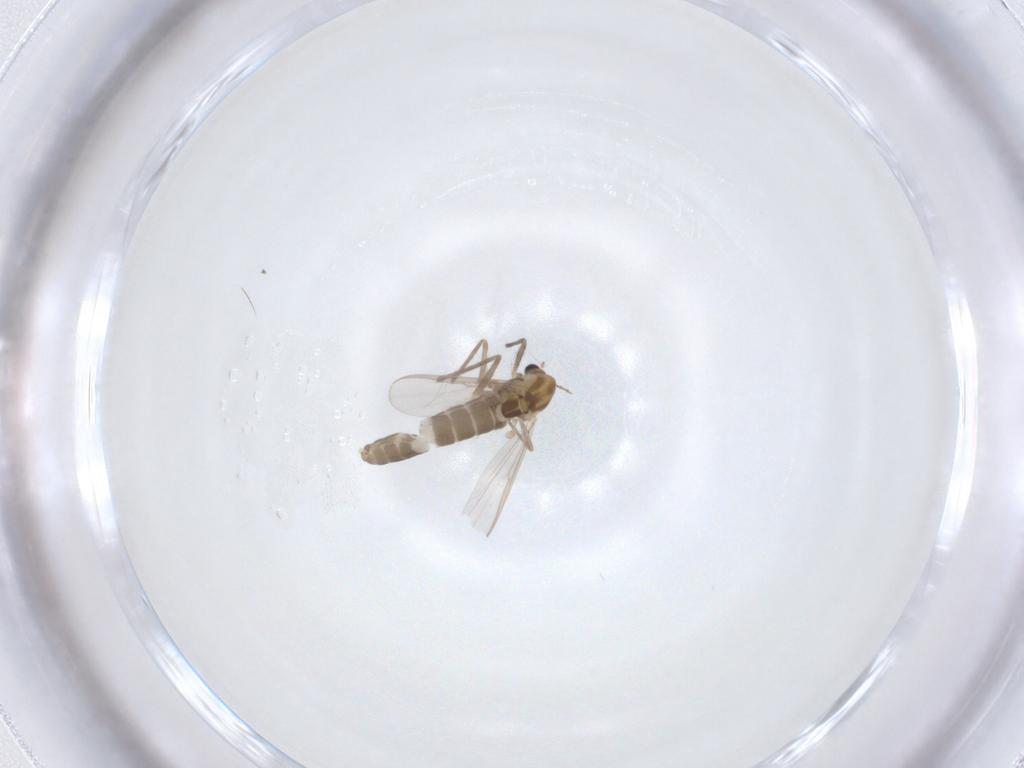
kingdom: Animalia
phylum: Arthropoda
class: Insecta
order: Diptera
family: Chironomidae
